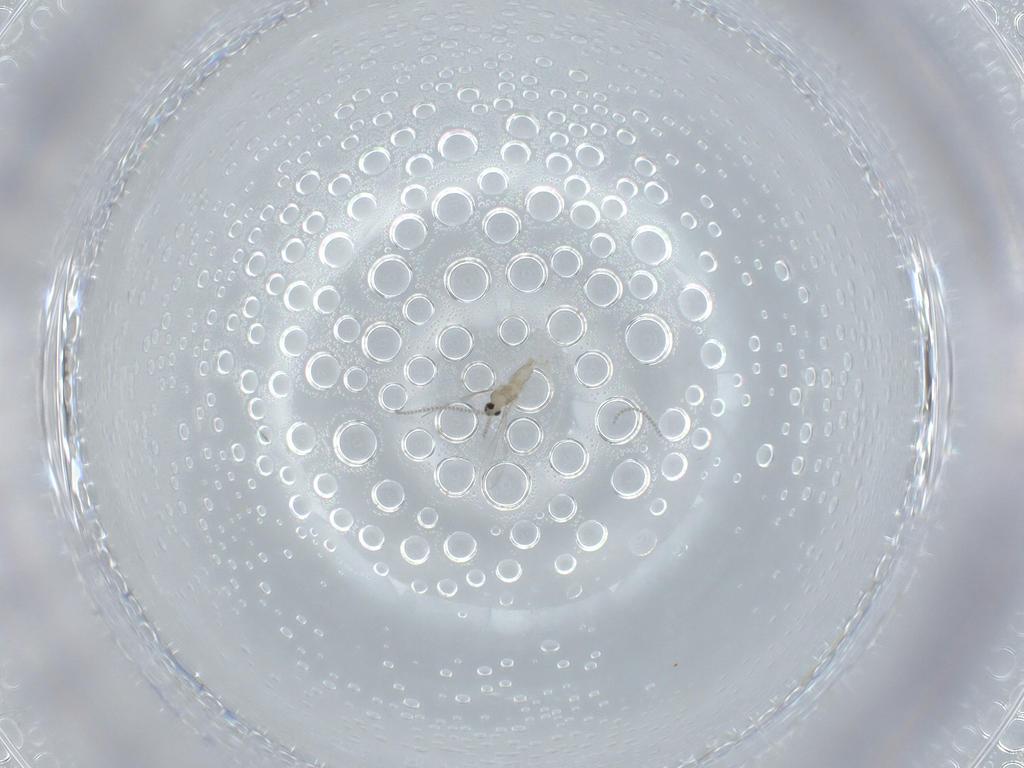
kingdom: Animalia
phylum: Arthropoda
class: Insecta
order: Diptera
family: Cecidomyiidae
